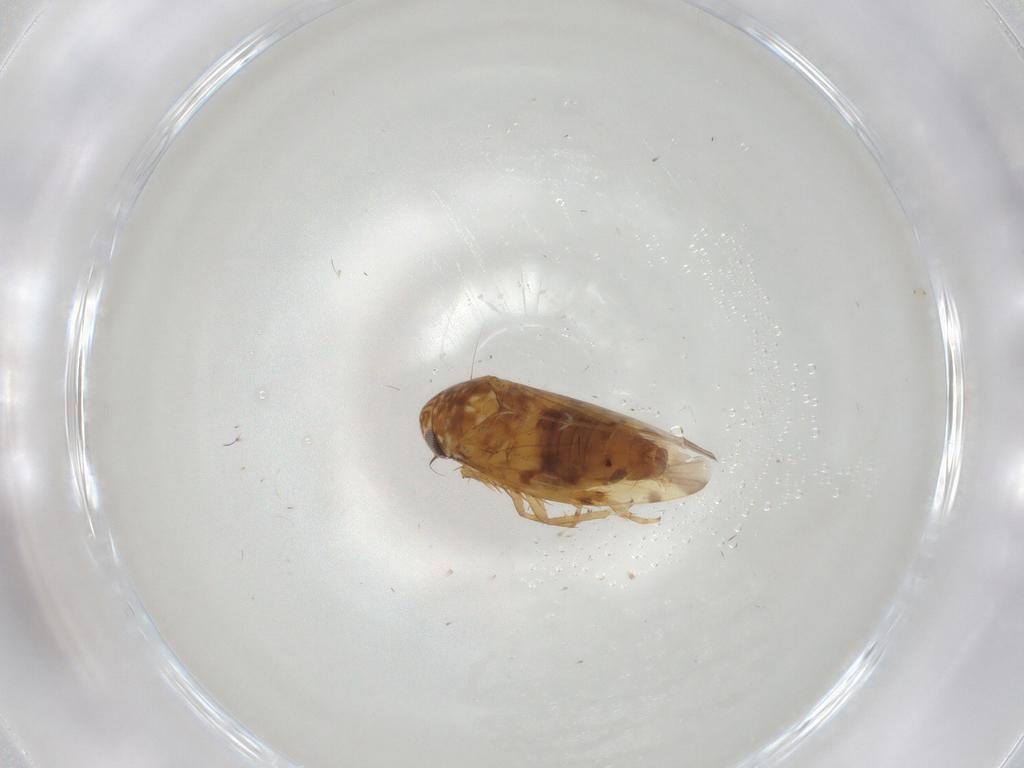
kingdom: Animalia
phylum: Arthropoda
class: Insecta
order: Hemiptera
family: Cicadellidae
